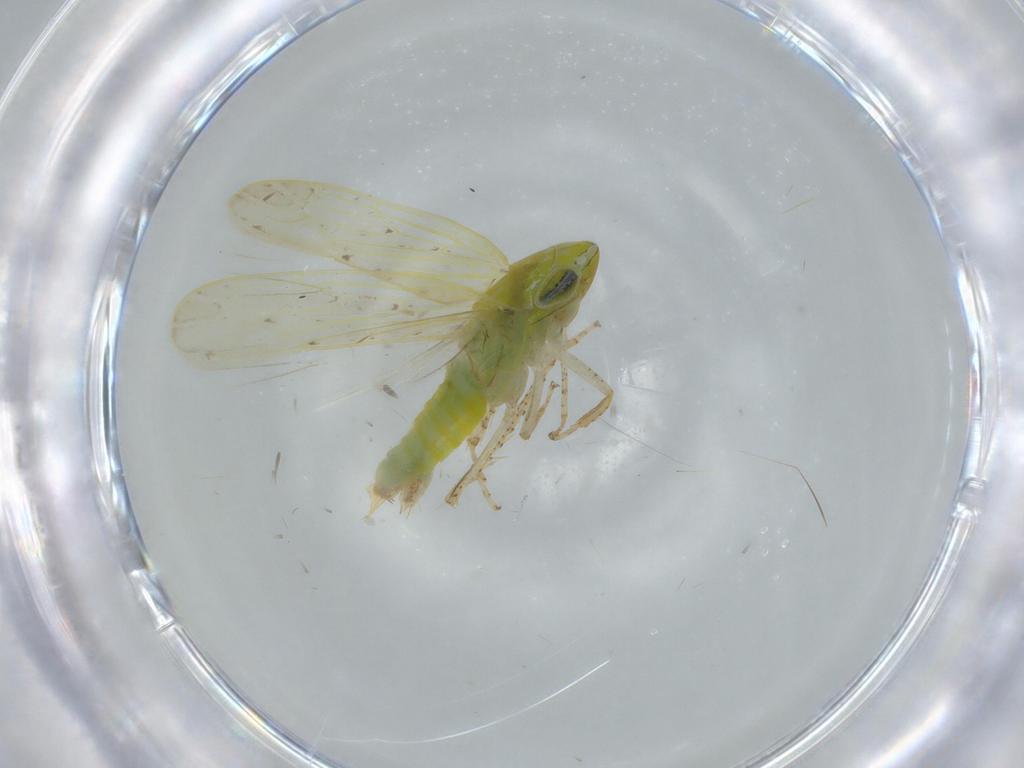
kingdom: Animalia
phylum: Arthropoda
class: Insecta
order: Hemiptera
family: Cicadellidae
